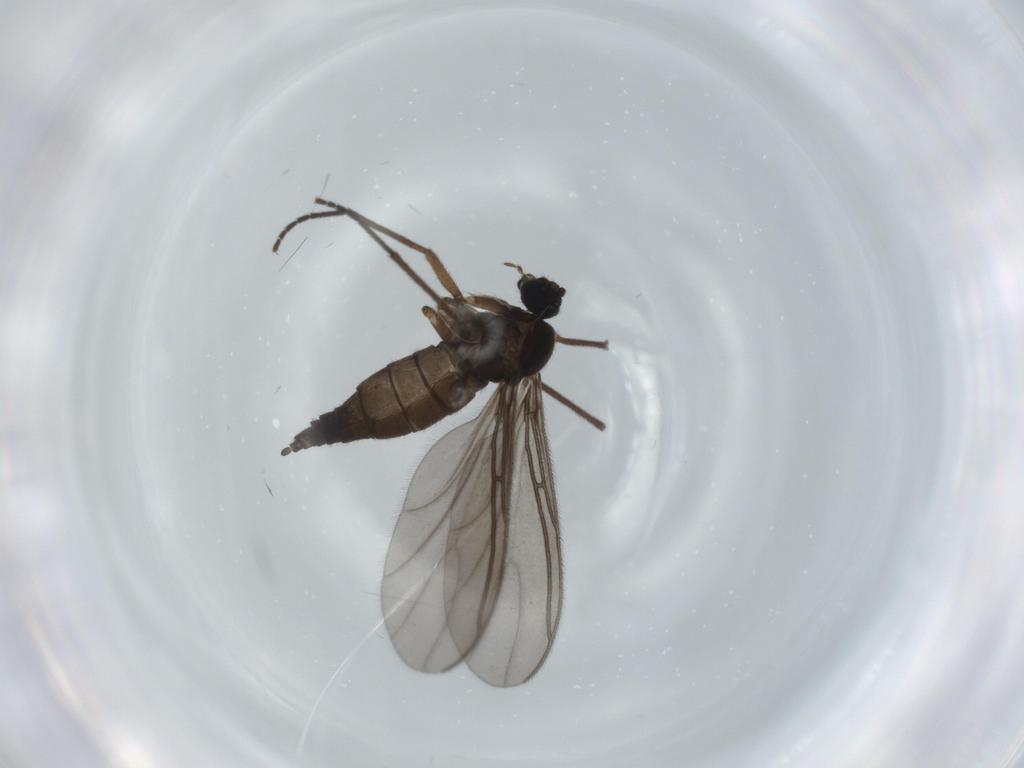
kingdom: Animalia
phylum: Arthropoda
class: Insecta
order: Diptera
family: Sciaridae
